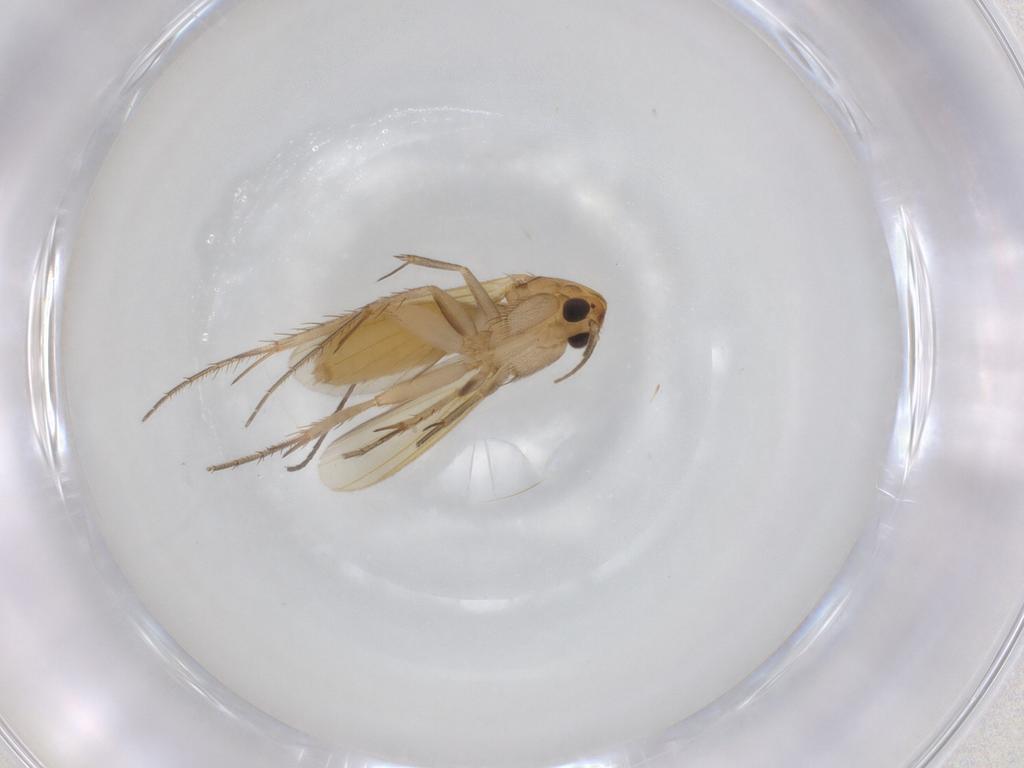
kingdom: Animalia
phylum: Arthropoda
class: Insecta
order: Diptera
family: Mycetophilidae
